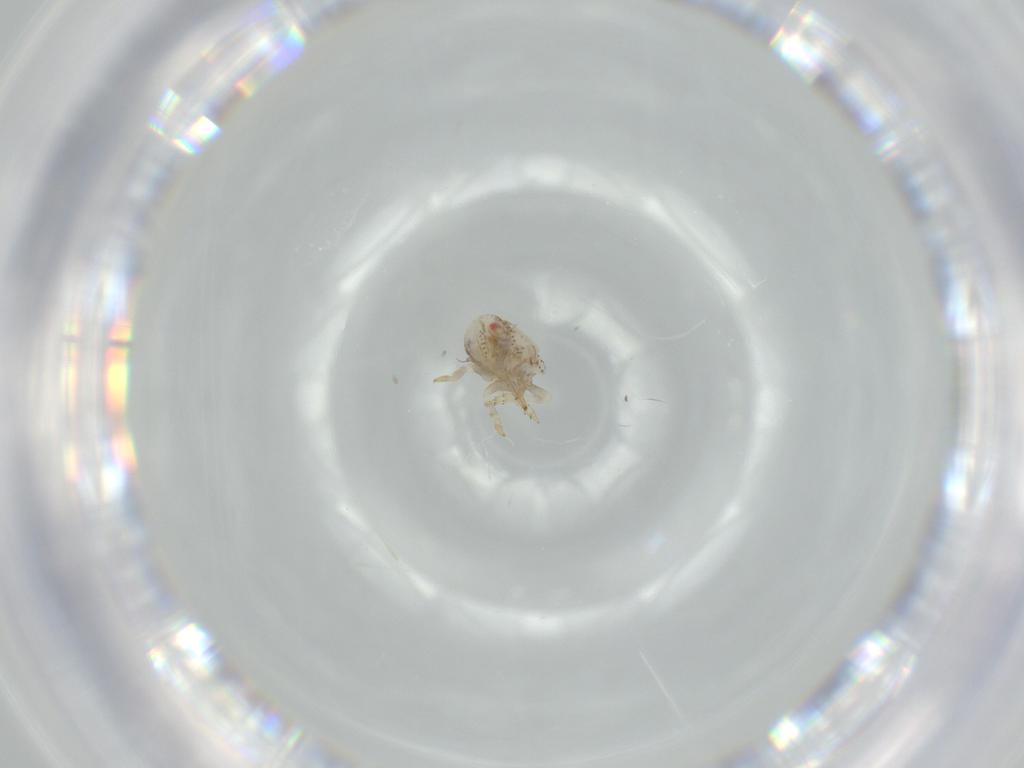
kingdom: Animalia
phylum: Arthropoda
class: Insecta
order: Hemiptera
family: Acanaloniidae
